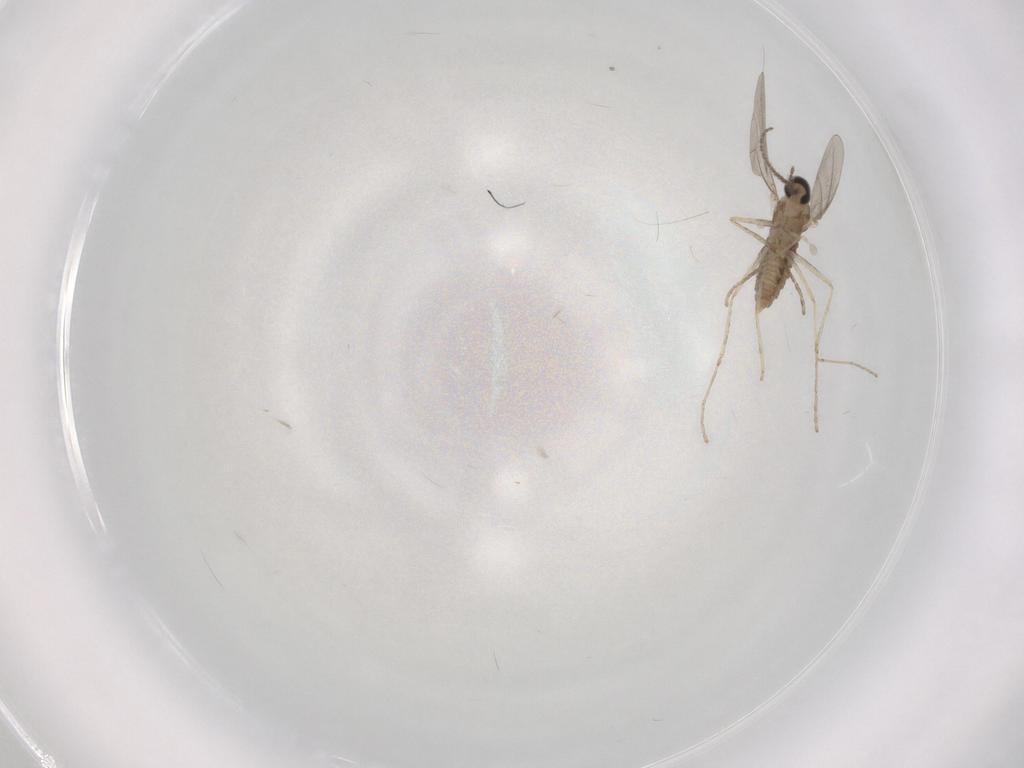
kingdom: Animalia
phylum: Arthropoda
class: Insecta
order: Diptera
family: Cecidomyiidae
